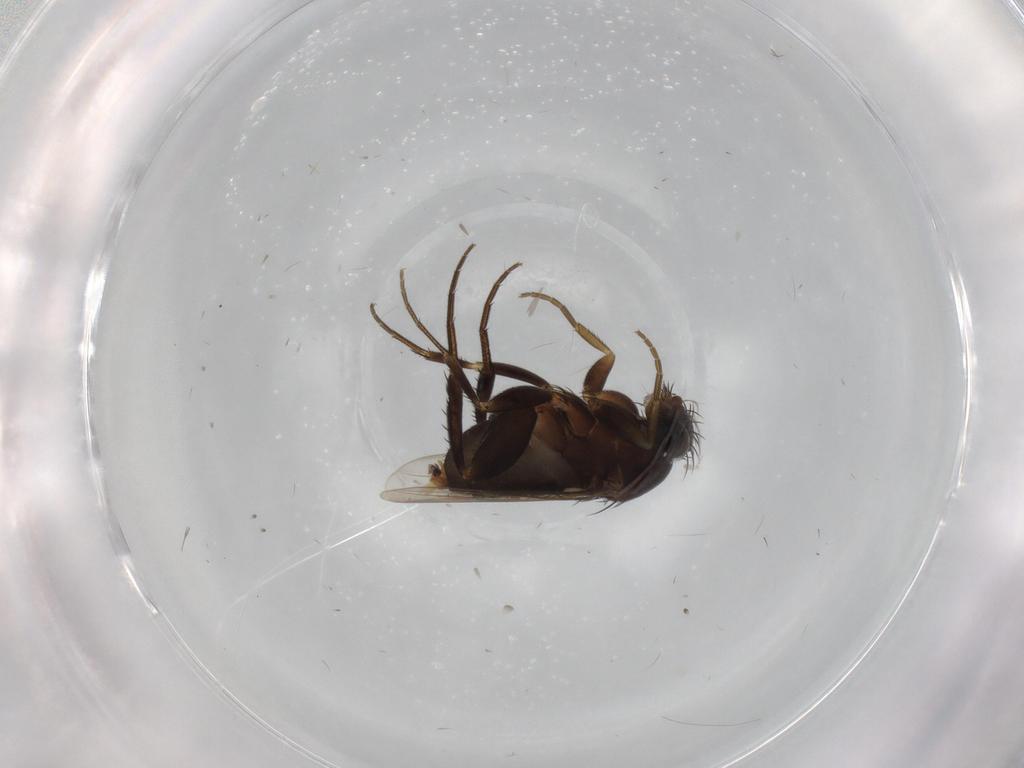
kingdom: Animalia
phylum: Arthropoda
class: Insecta
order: Diptera
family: Phoridae
